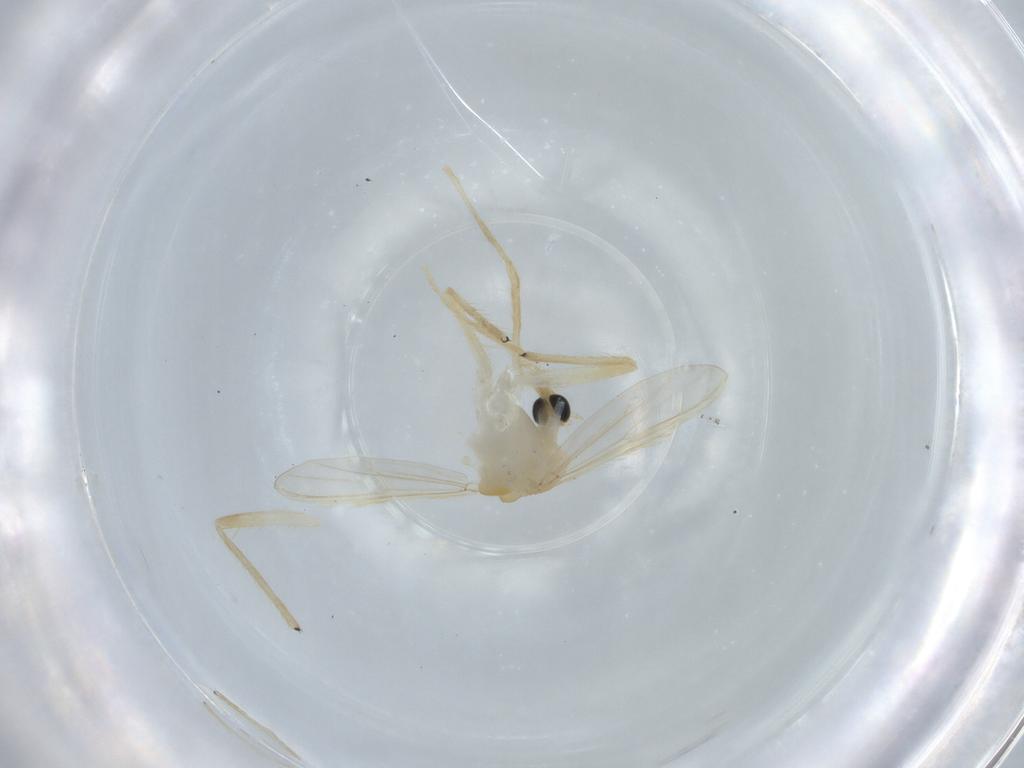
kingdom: Animalia
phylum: Arthropoda
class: Insecta
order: Diptera
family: Chironomidae
